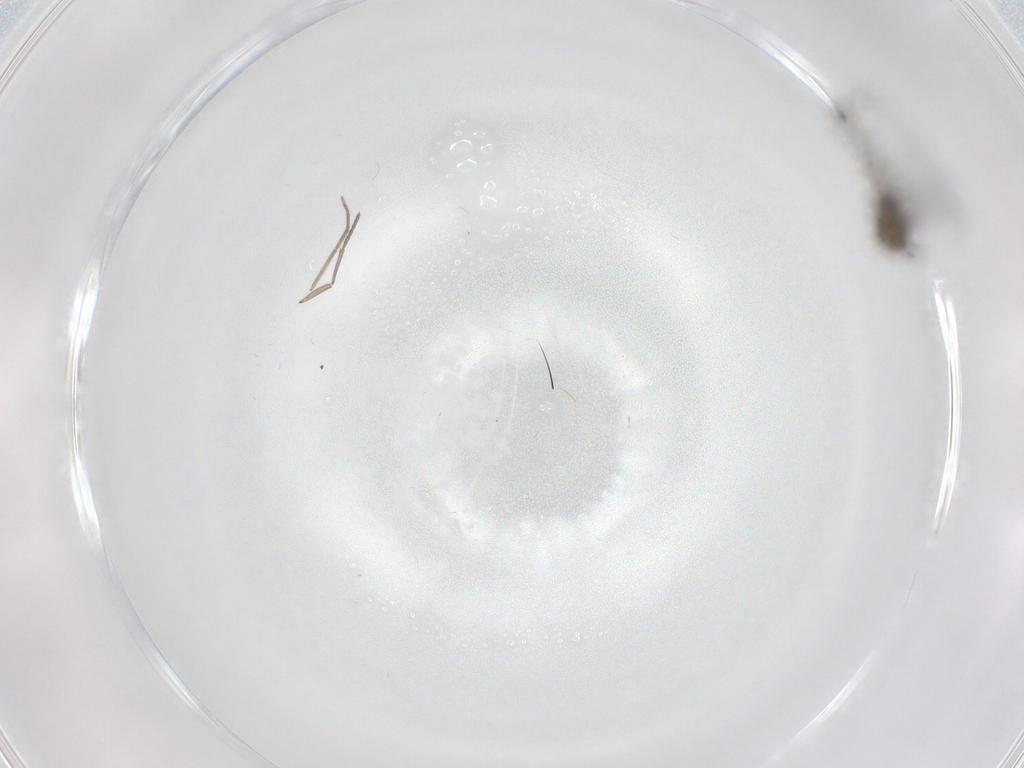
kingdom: Animalia
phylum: Arthropoda
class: Insecta
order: Diptera
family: Sciaridae
